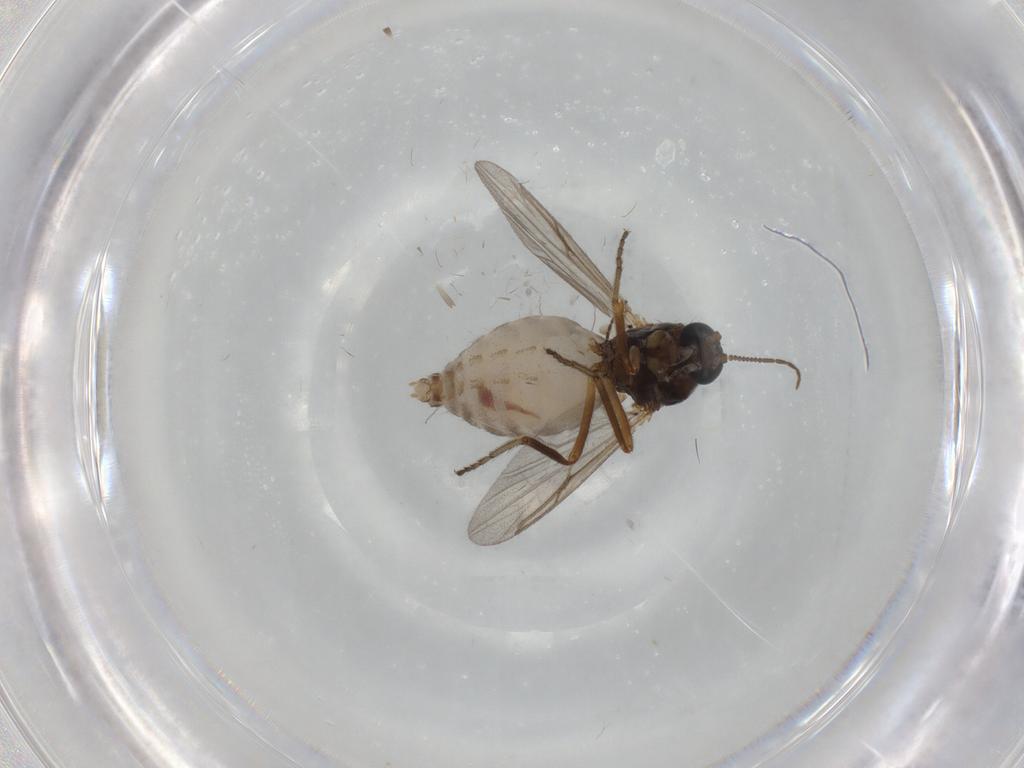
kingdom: Animalia
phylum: Arthropoda
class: Insecta
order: Diptera
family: Ceratopogonidae
